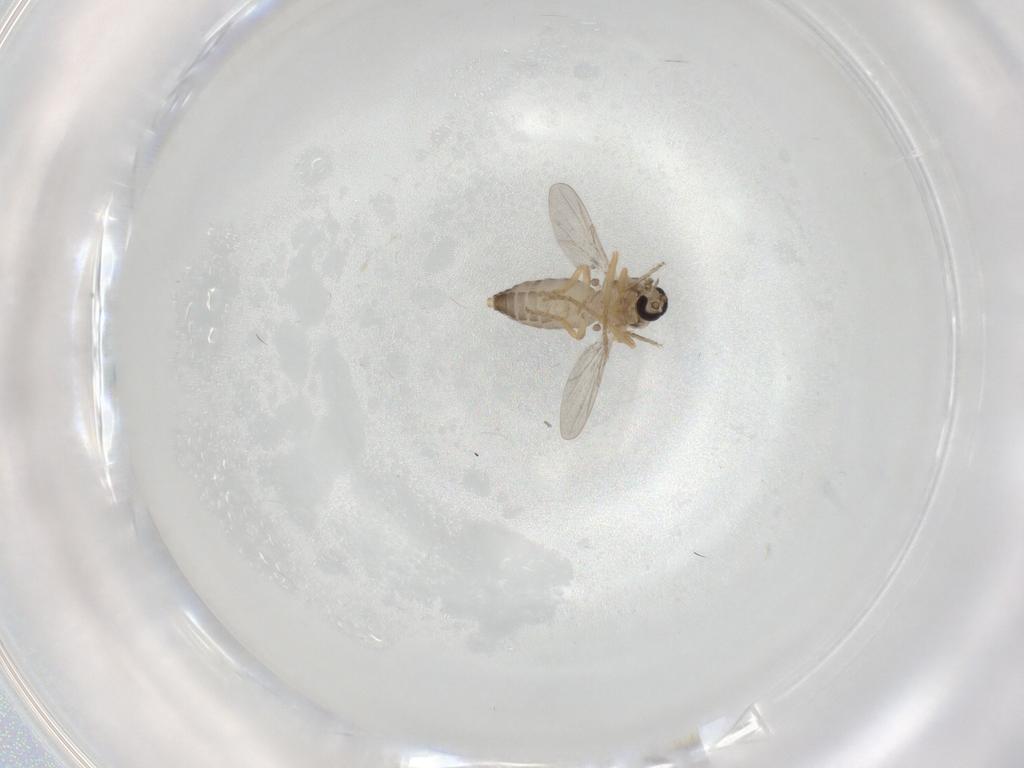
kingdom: Animalia
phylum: Arthropoda
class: Insecta
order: Diptera
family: Ceratopogonidae
